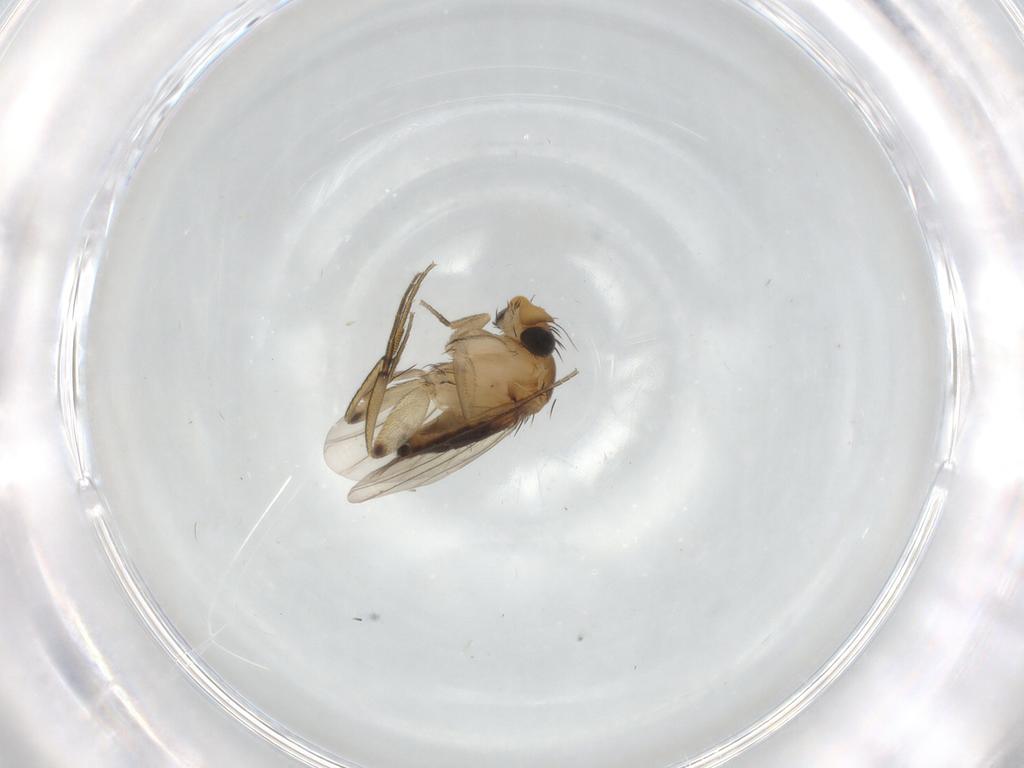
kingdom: Animalia
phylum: Arthropoda
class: Insecta
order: Diptera
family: Phoridae
